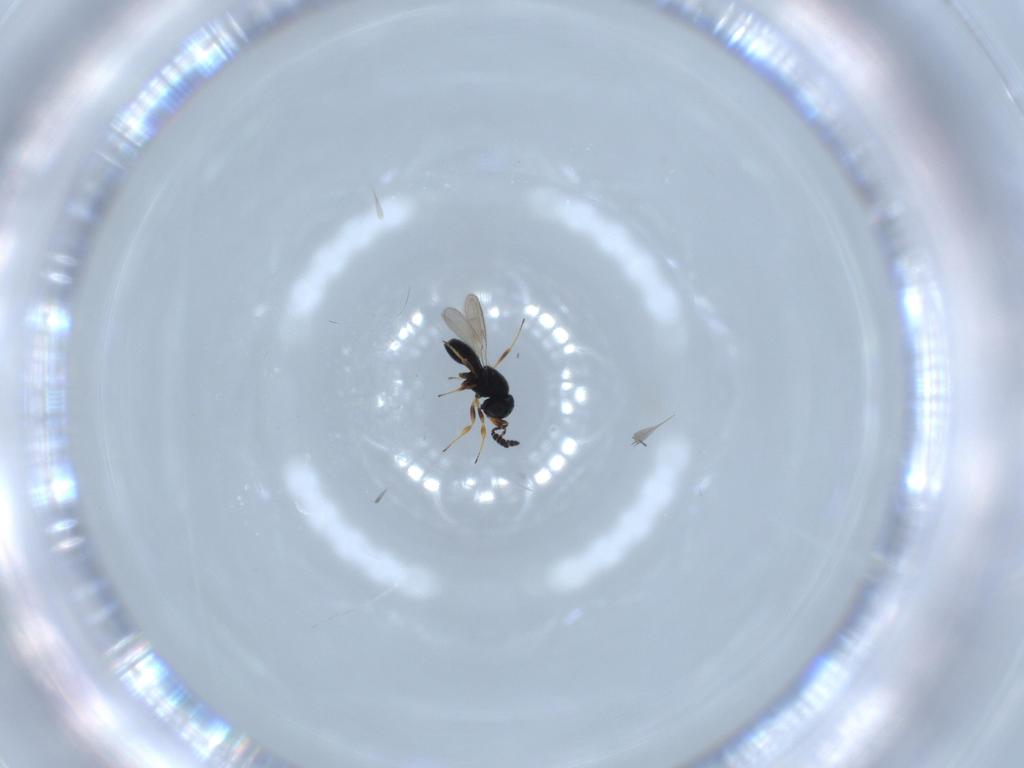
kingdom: Animalia
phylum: Arthropoda
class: Insecta
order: Hymenoptera
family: Scelionidae
